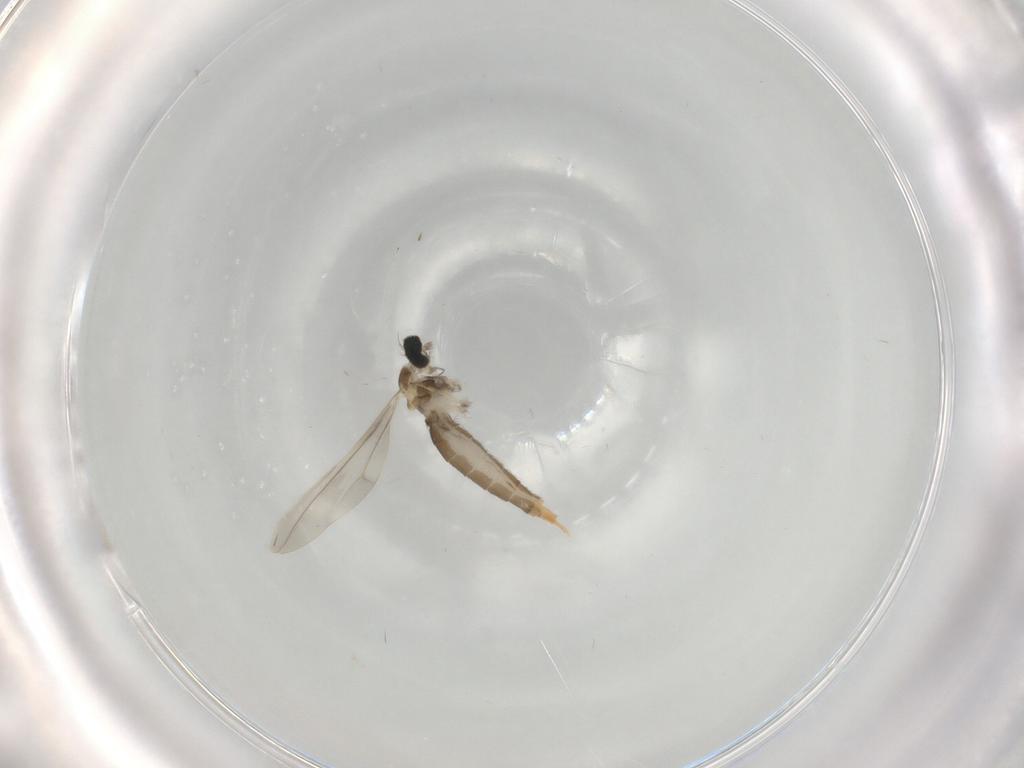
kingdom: Animalia
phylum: Arthropoda
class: Insecta
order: Diptera
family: Cecidomyiidae
